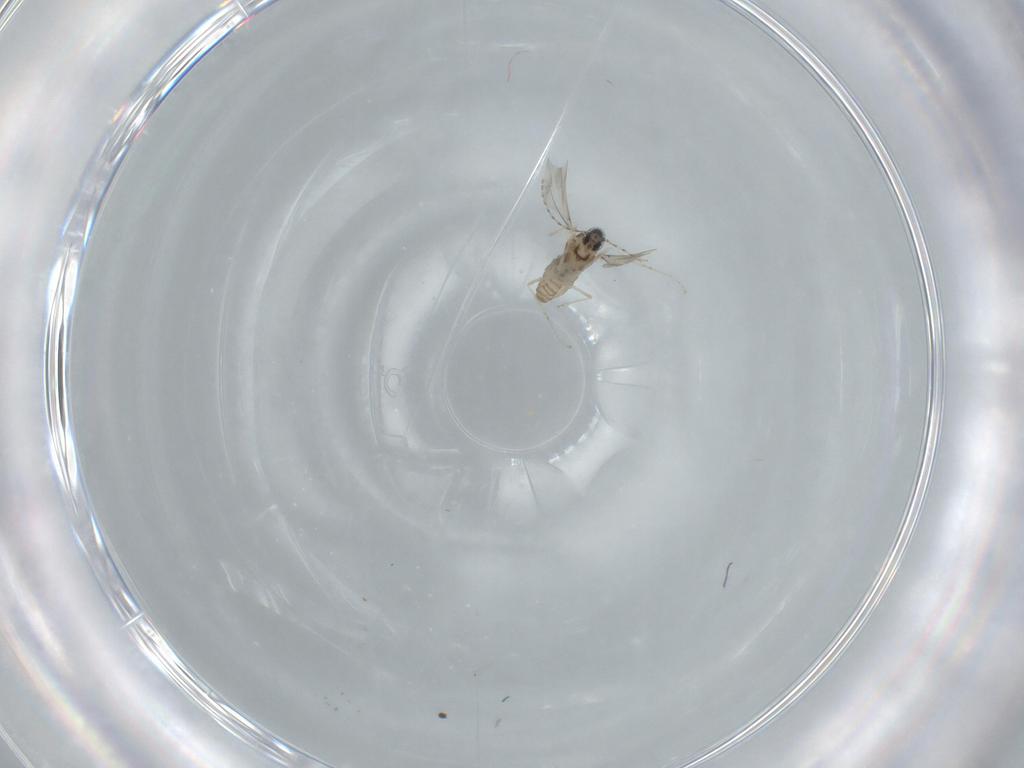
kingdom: Animalia
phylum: Arthropoda
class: Insecta
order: Diptera
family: Cecidomyiidae
